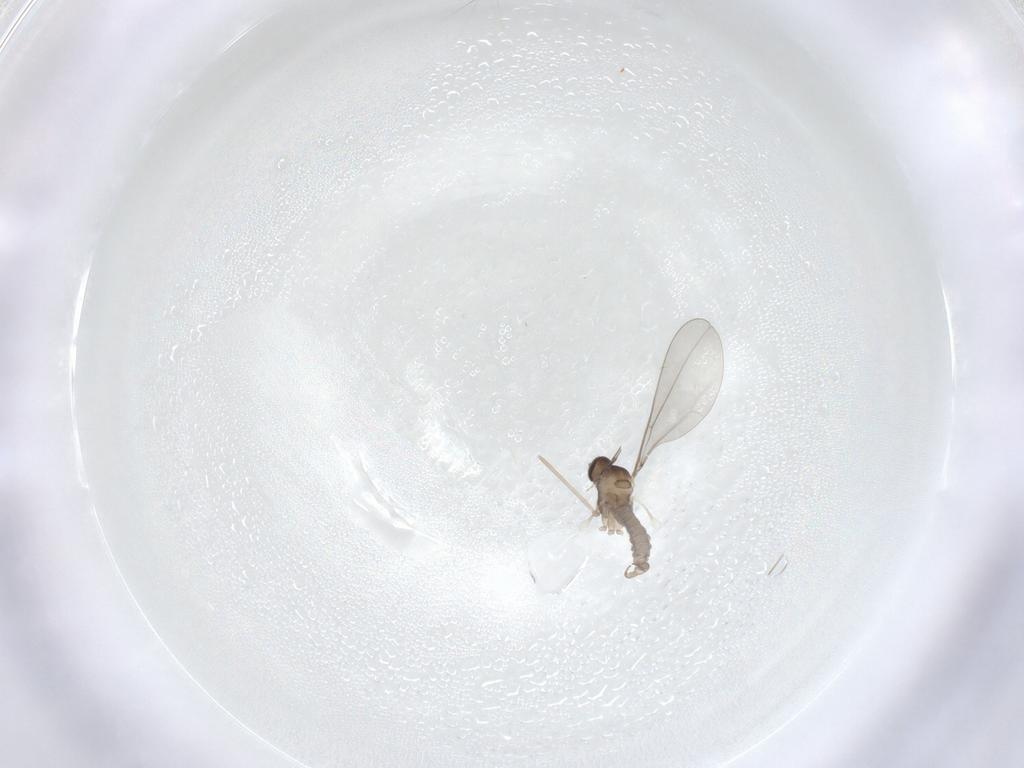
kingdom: Animalia
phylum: Arthropoda
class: Insecta
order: Diptera
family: Cecidomyiidae
